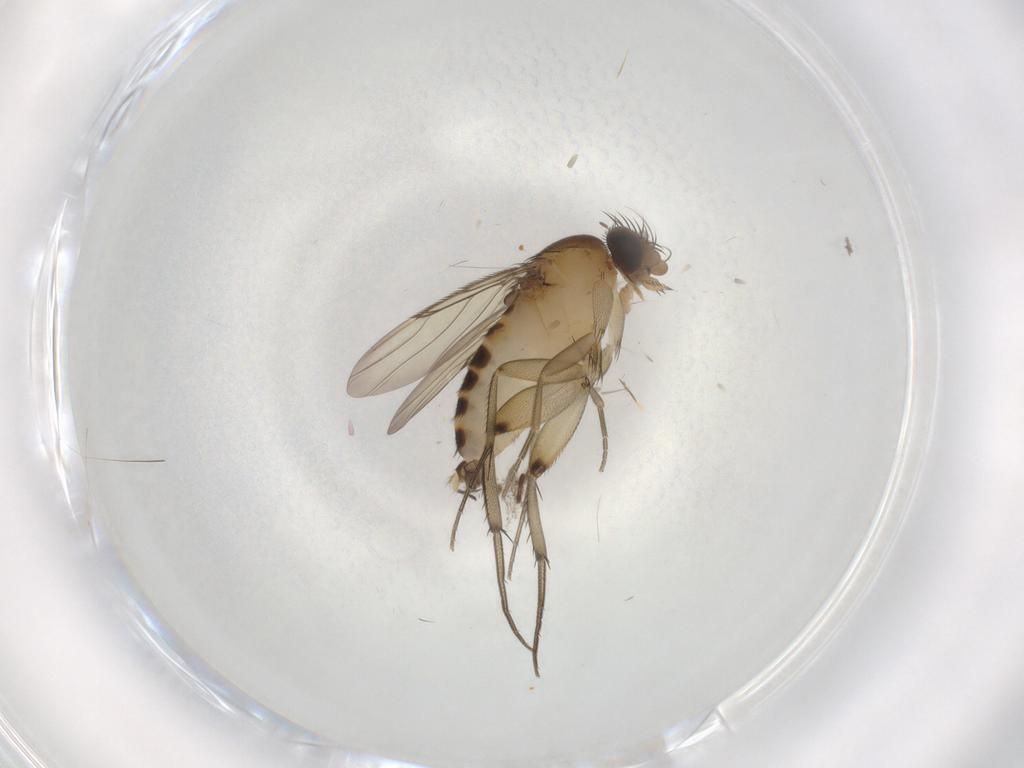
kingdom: Animalia
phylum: Arthropoda
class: Insecta
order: Diptera
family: Phoridae
